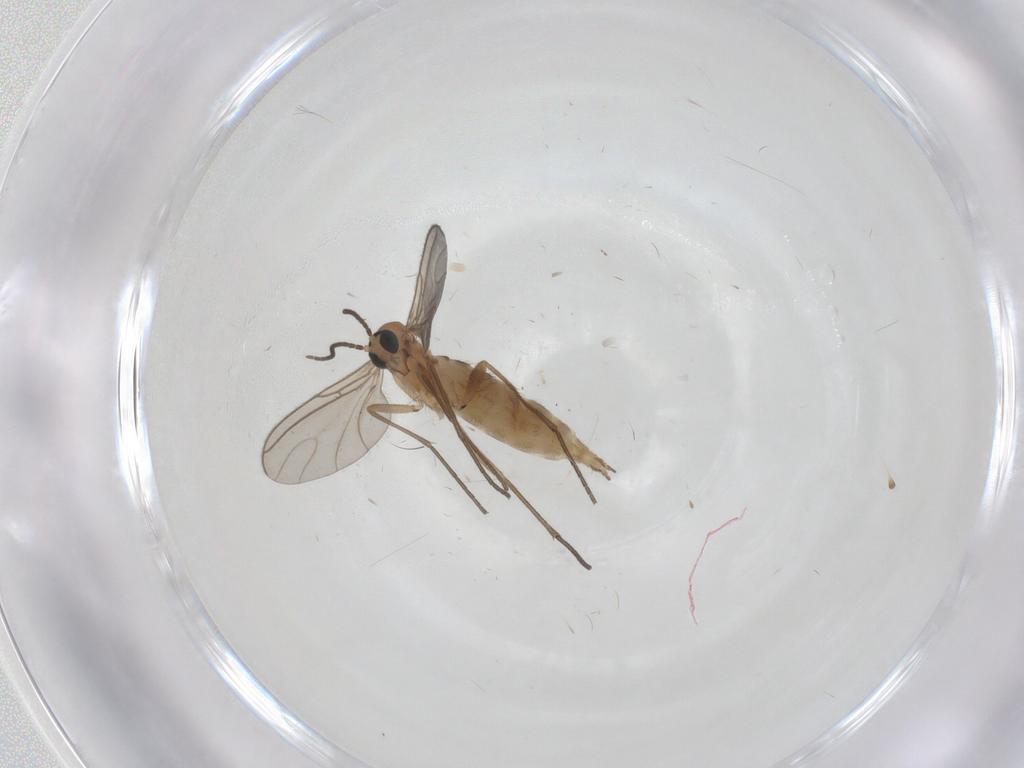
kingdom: Animalia
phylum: Arthropoda
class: Insecta
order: Diptera
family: Sciaridae
